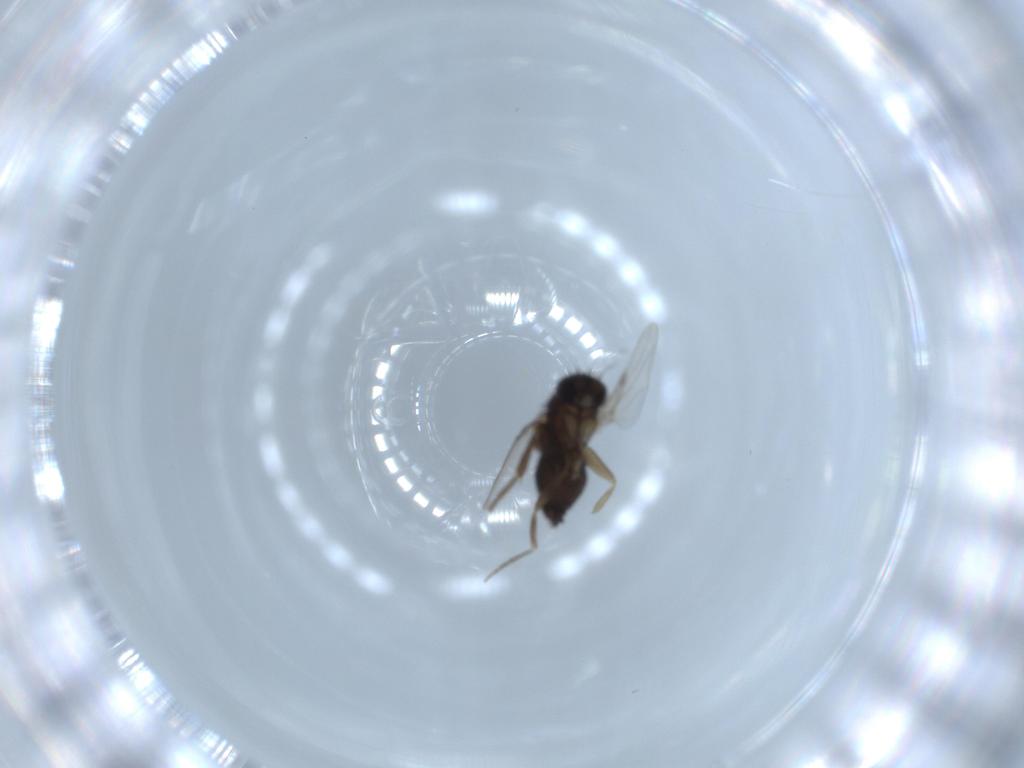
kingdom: Animalia
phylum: Arthropoda
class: Insecta
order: Diptera
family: Phoridae
